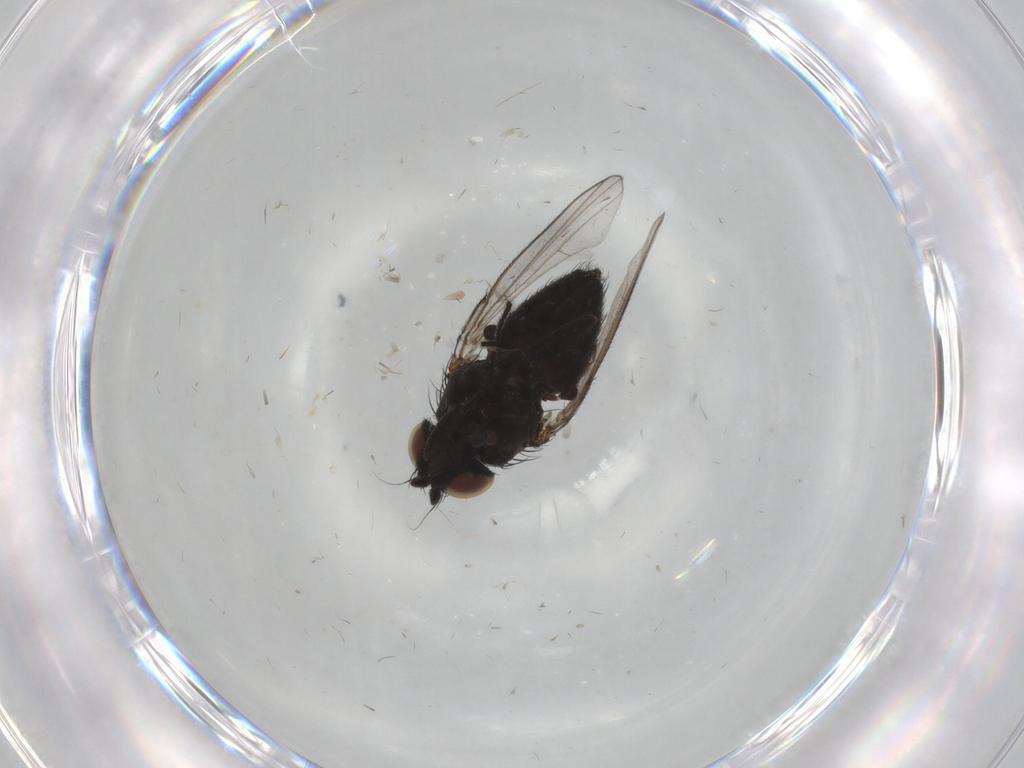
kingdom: Animalia
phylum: Arthropoda
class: Insecta
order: Diptera
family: Milichiidae
